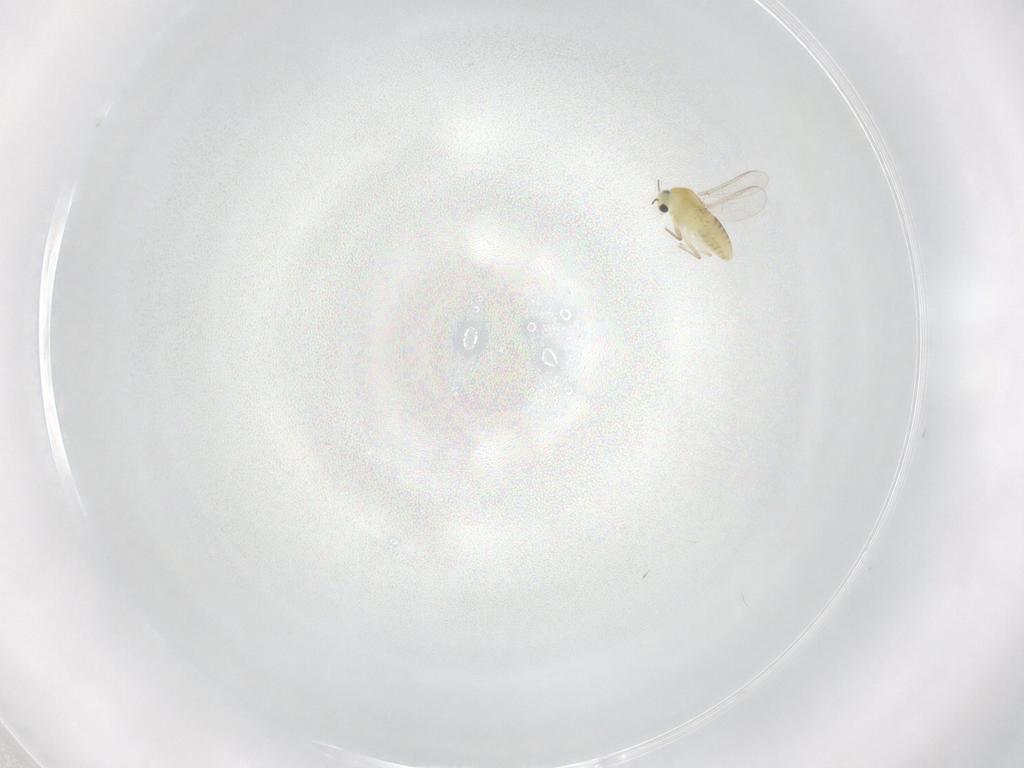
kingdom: Animalia
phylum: Arthropoda
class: Insecta
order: Diptera
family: Chironomidae
